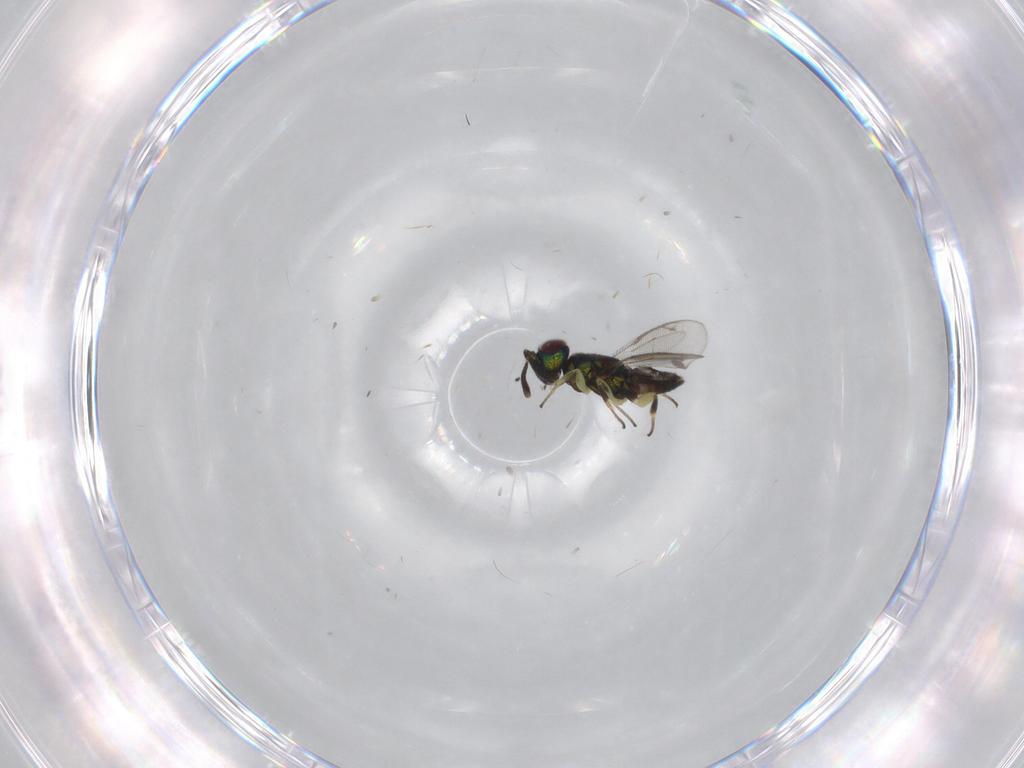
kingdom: Animalia
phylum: Arthropoda
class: Insecta
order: Hymenoptera
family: Eupelmidae
